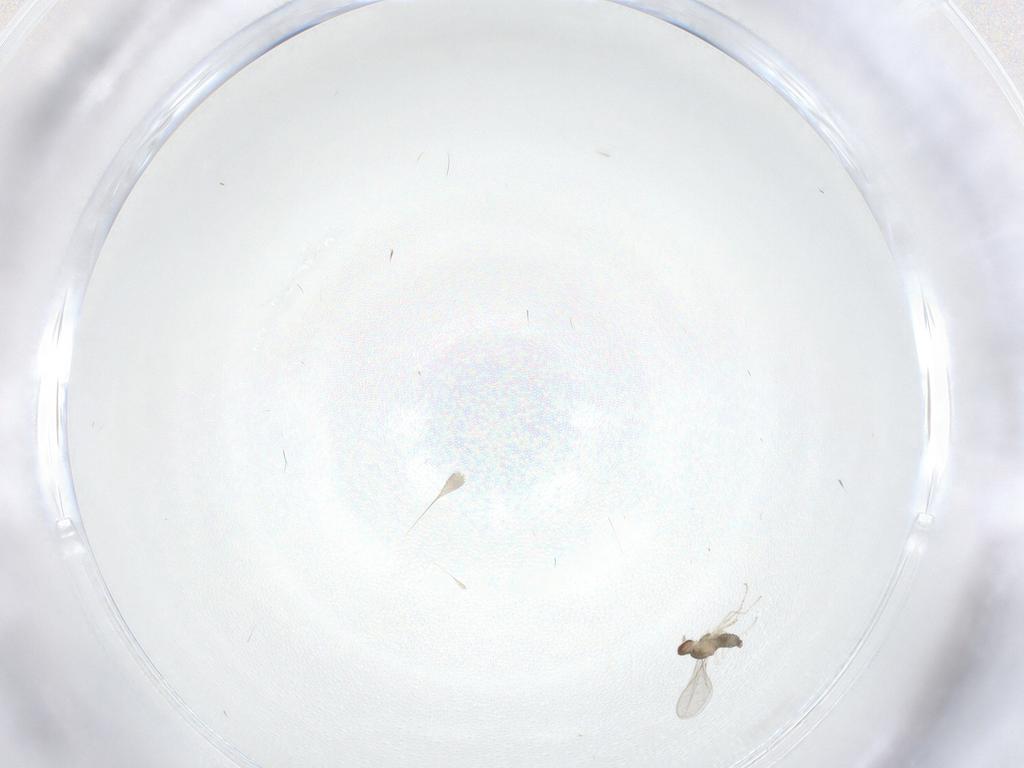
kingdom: Animalia
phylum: Arthropoda
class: Insecta
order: Diptera
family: Cecidomyiidae
